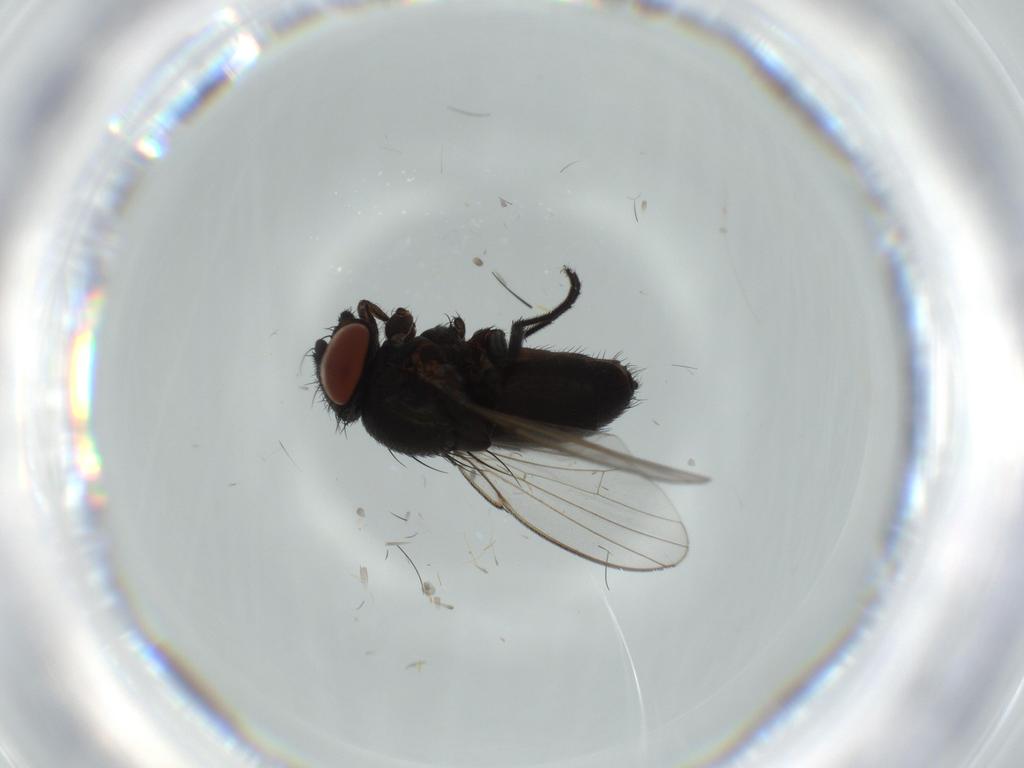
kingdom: Animalia
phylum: Arthropoda
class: Insecta
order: Diptera
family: Milichiidae
